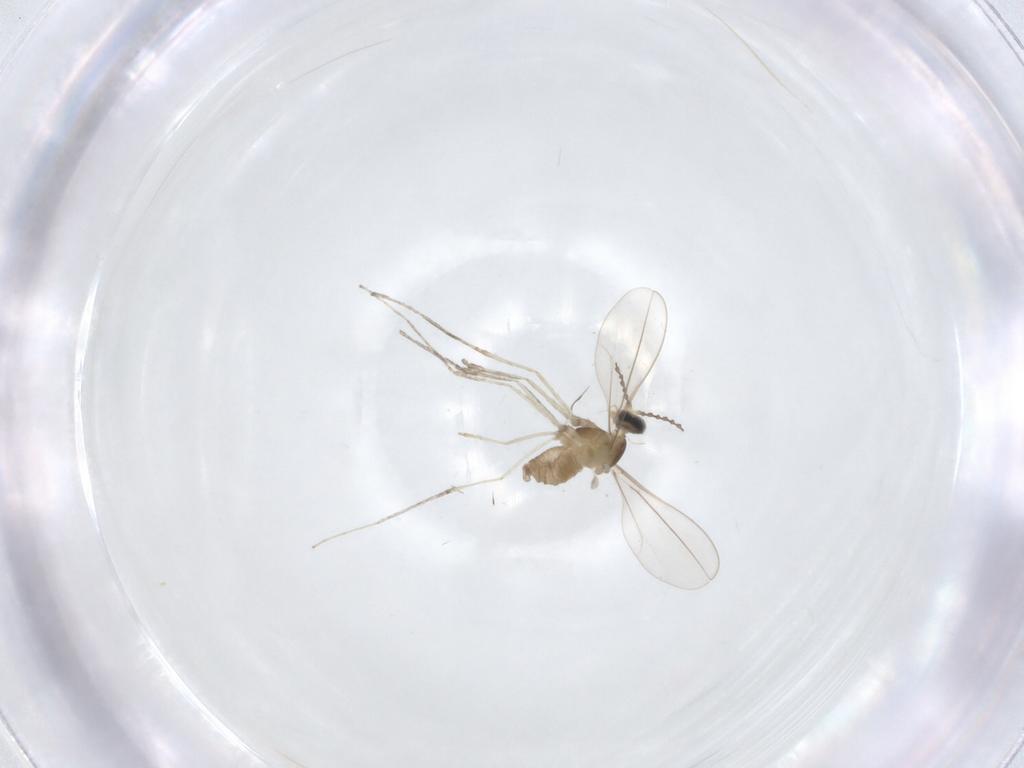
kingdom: Animalia
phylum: Arthropoda
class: Insecta
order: Diptera
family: Cecidomyiidae
